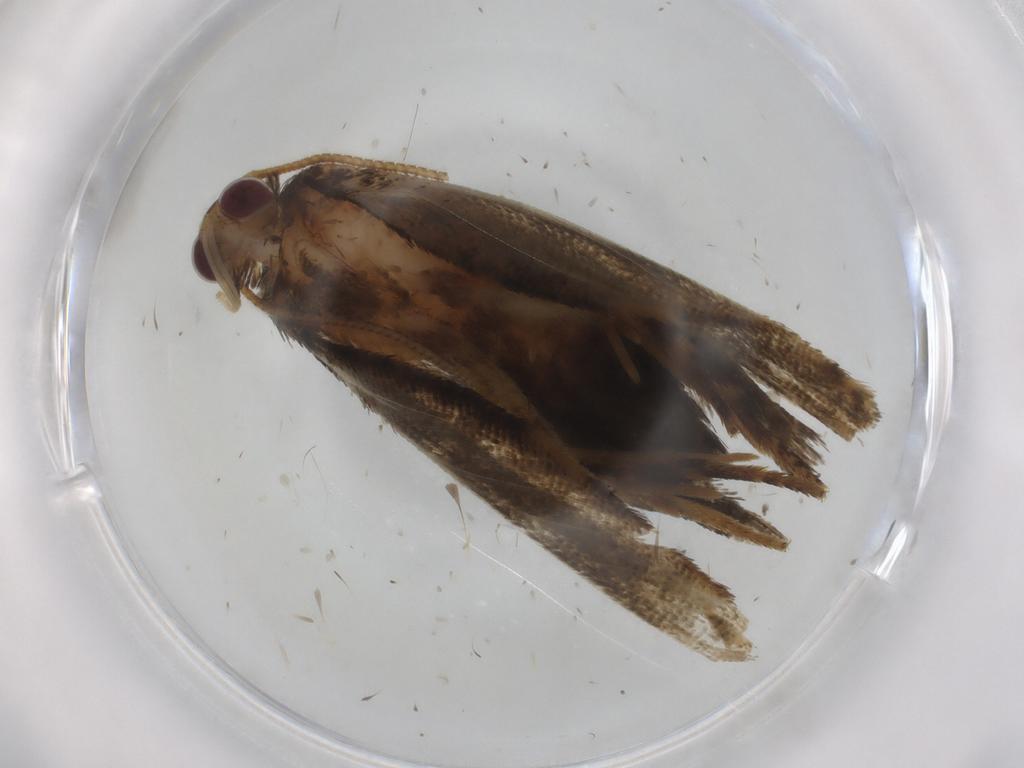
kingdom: Animalia
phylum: Arthropoda
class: Insecta
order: Lepidoptera
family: Tortricidae
